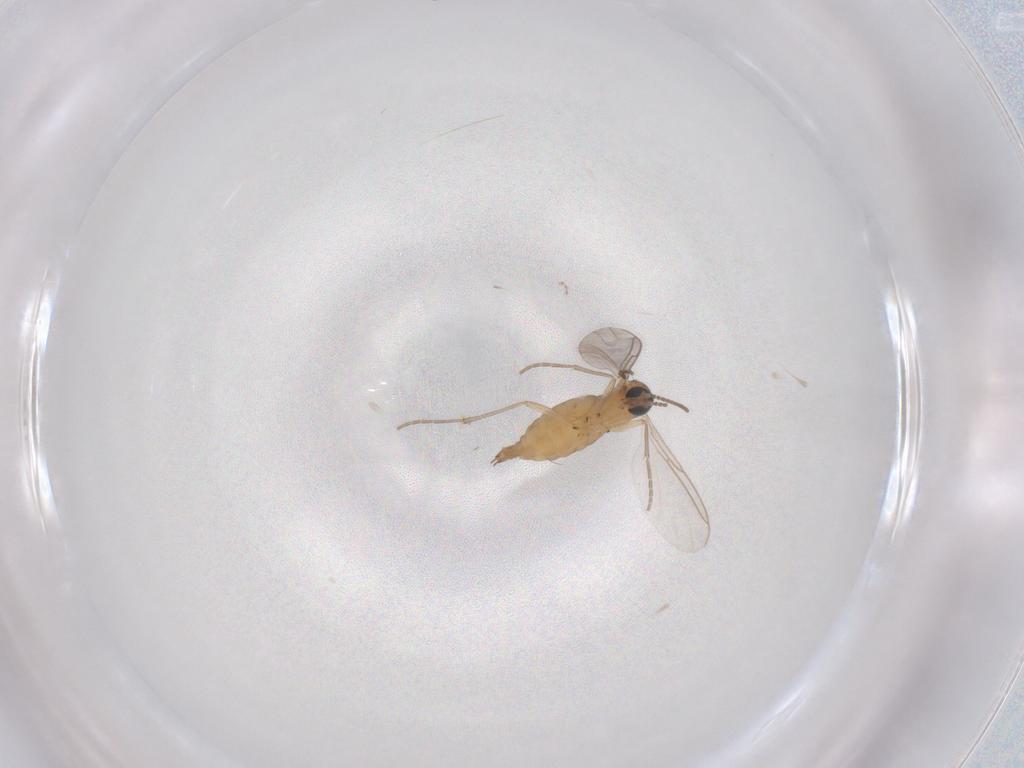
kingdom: Animalia
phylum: Arthropoda
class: Insecta
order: Diptera
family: Sciaridae
